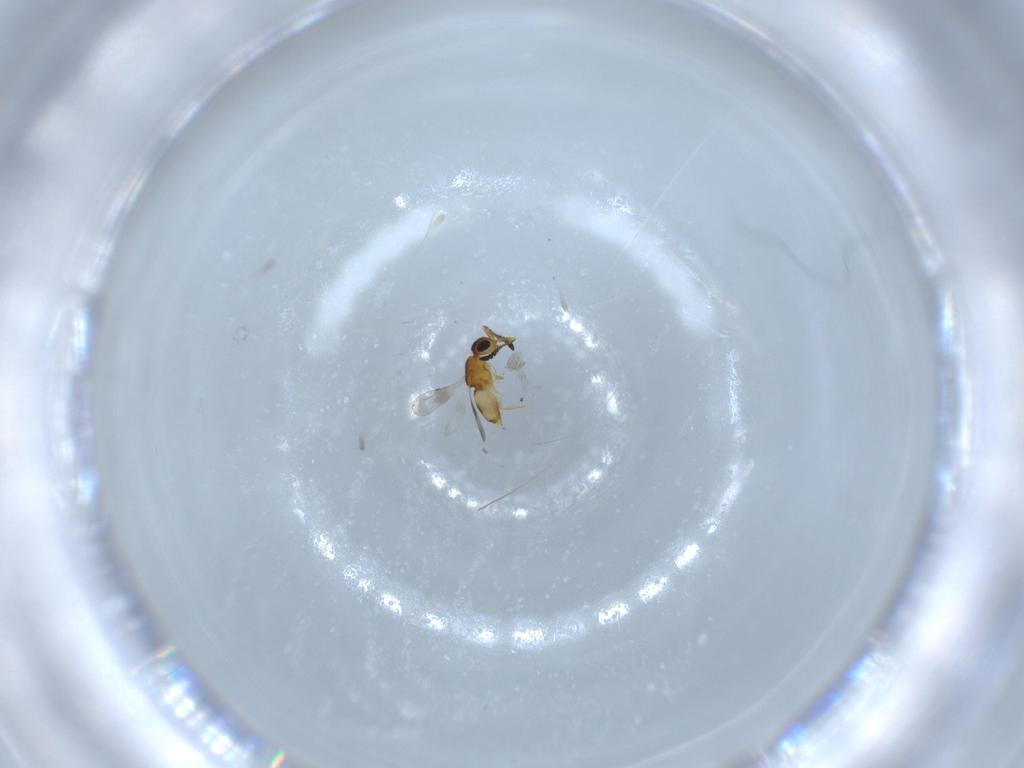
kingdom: Animalia
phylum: Arthropoda
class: Insecta
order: Hymenoptera
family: Ceraphronidae
